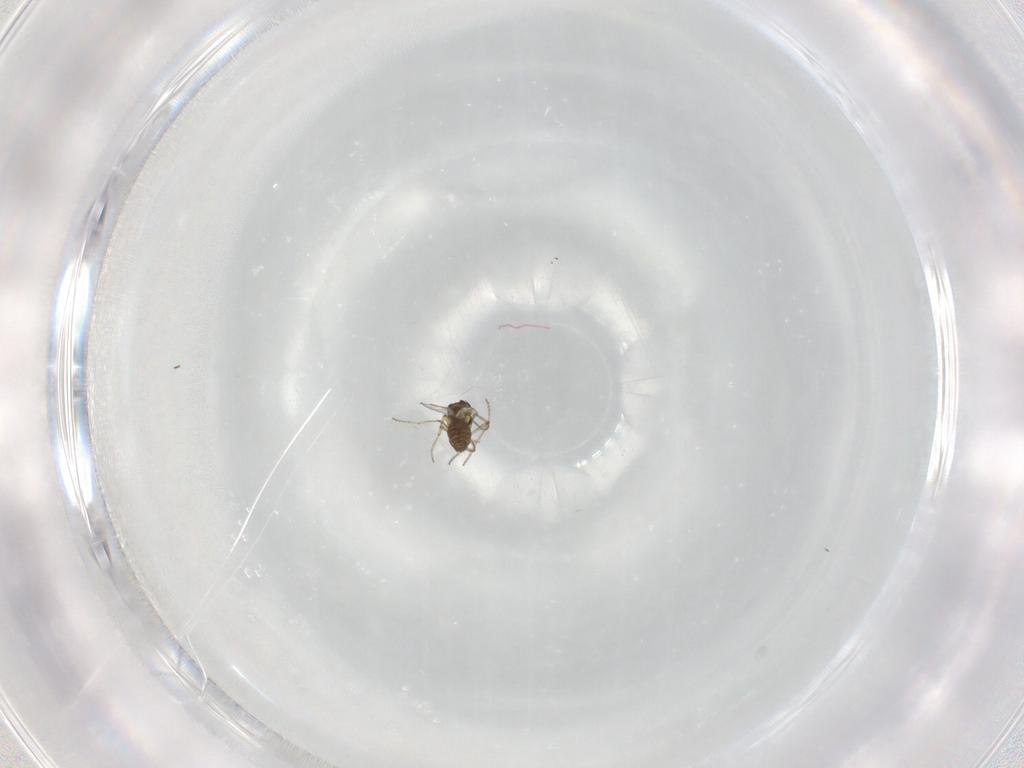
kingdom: Animalia
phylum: Arthropoda
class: Insecta
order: Diptera
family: Ceratopogonidae
